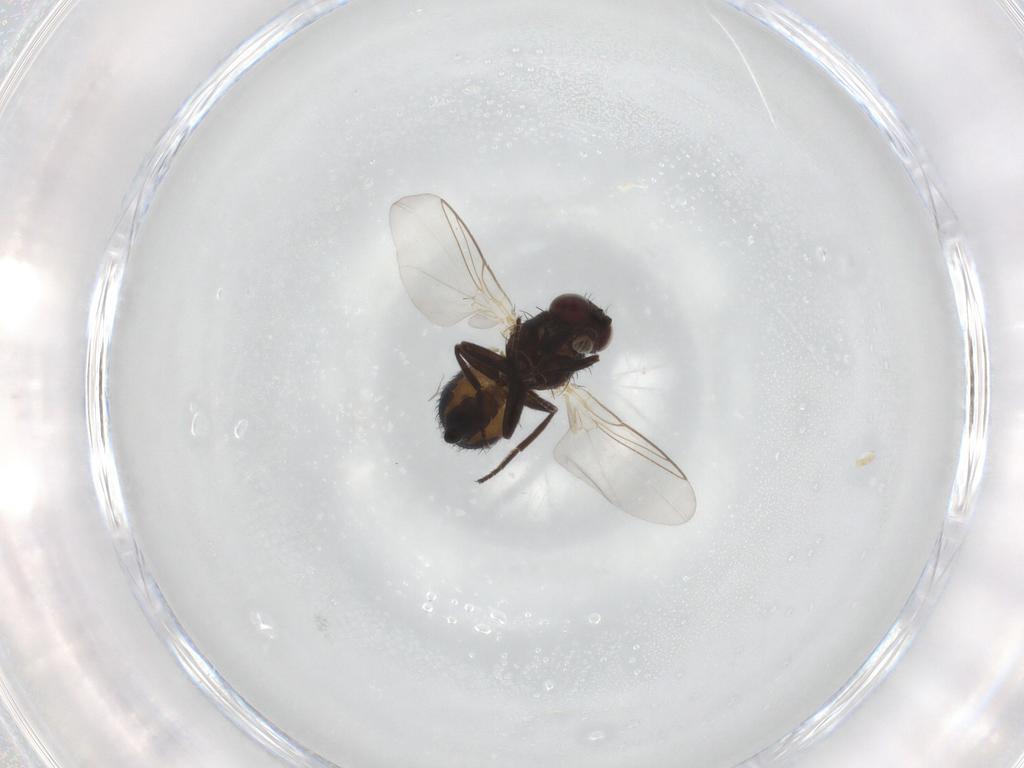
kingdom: Animalia
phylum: Arthropoda
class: Insecta
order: Diptera
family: Agromyzidae
